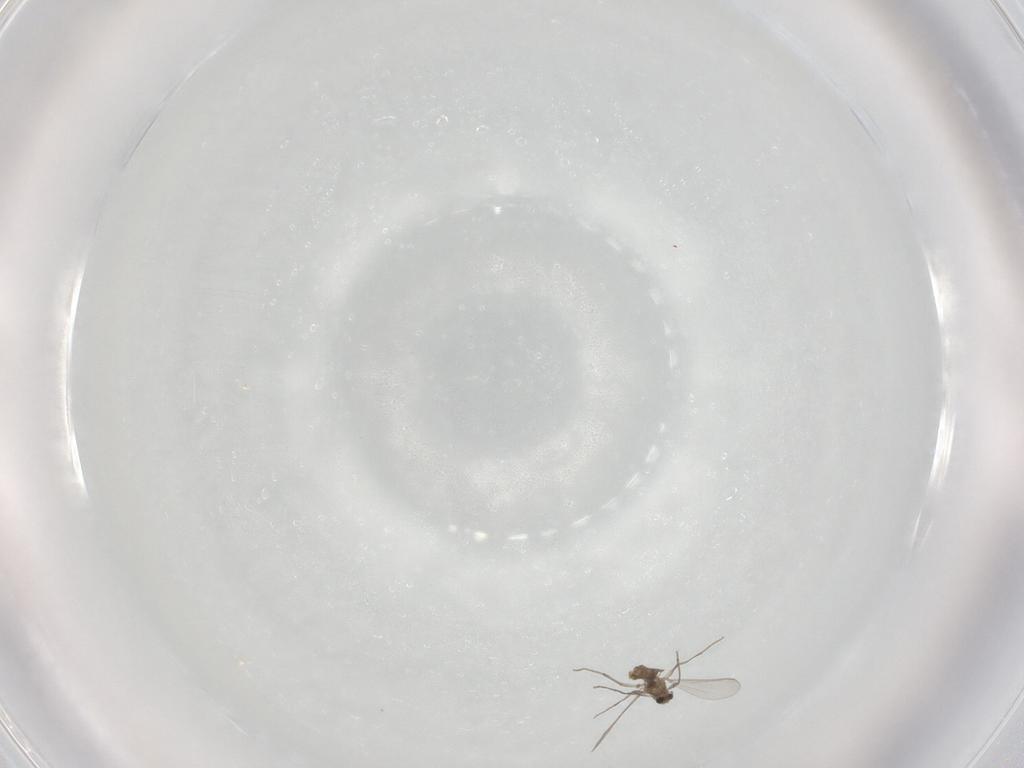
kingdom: Animalia
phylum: Arthropoda
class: Insecta
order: Diptera
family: Chironomidae
